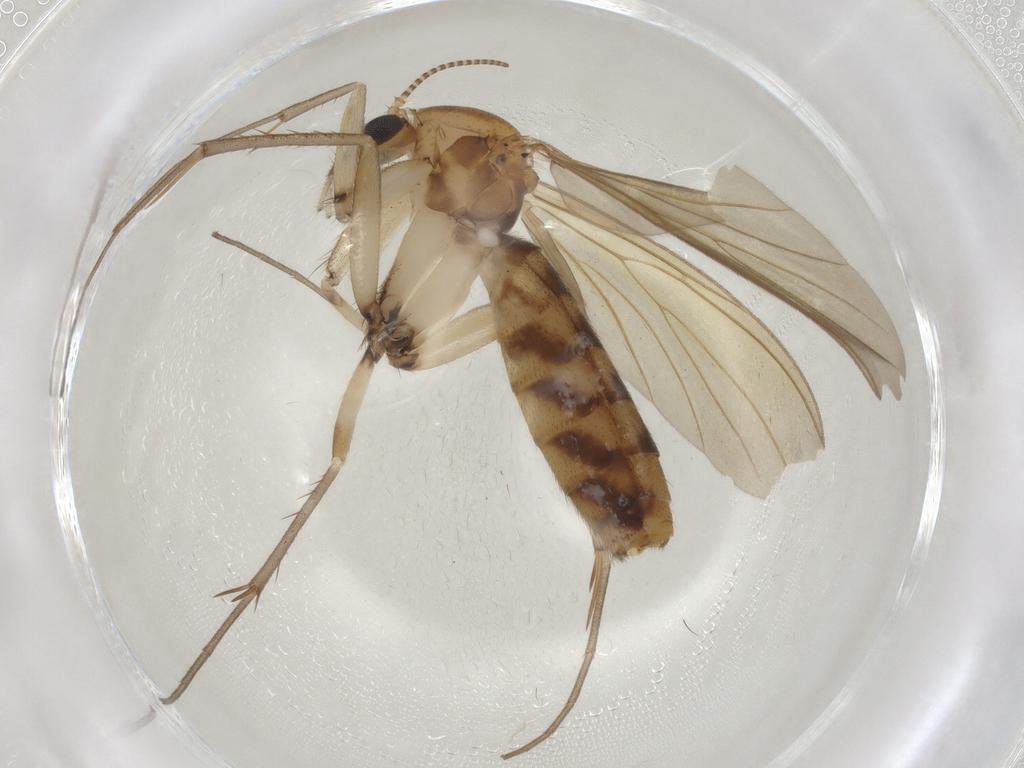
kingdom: Animalia
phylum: Arthropoda
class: Insecta
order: Diptera
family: Mycetophilidae
